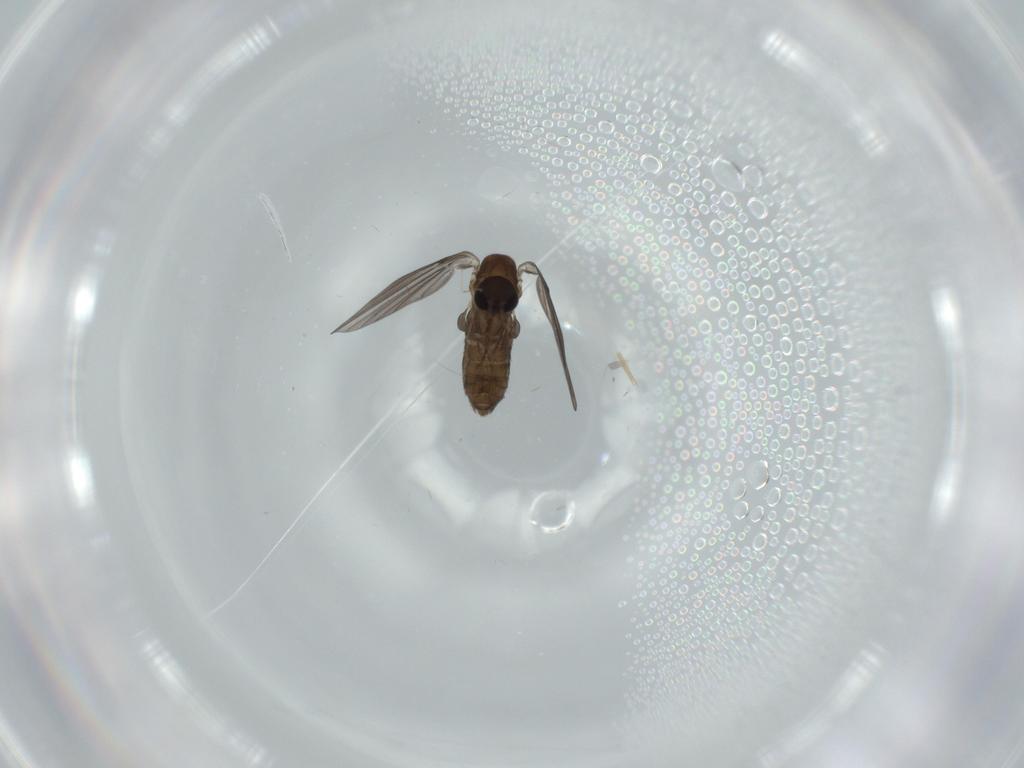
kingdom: Animalia
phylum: Arthropoda
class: Insecta
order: Diptera
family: Psychodidae
